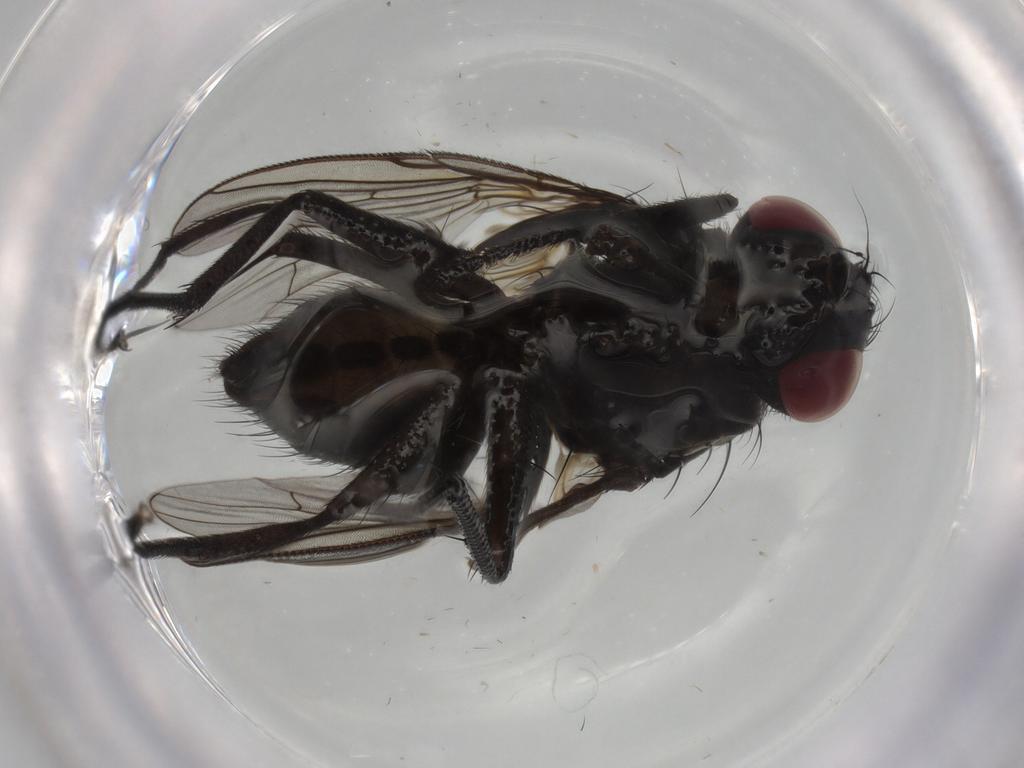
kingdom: Animalia
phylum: Arthropoda
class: Insecta
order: Diptera
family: Muscidae
